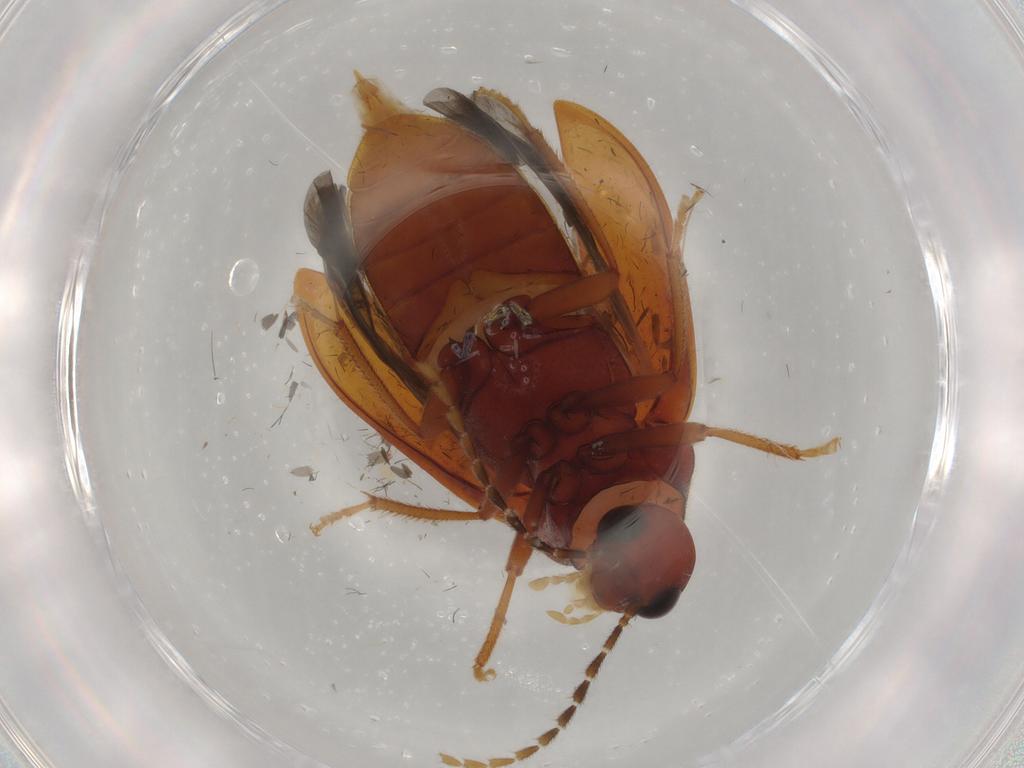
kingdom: Animalia
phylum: Arthropoda
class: Insecta
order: Coleoptera
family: Ptilodactylidae
